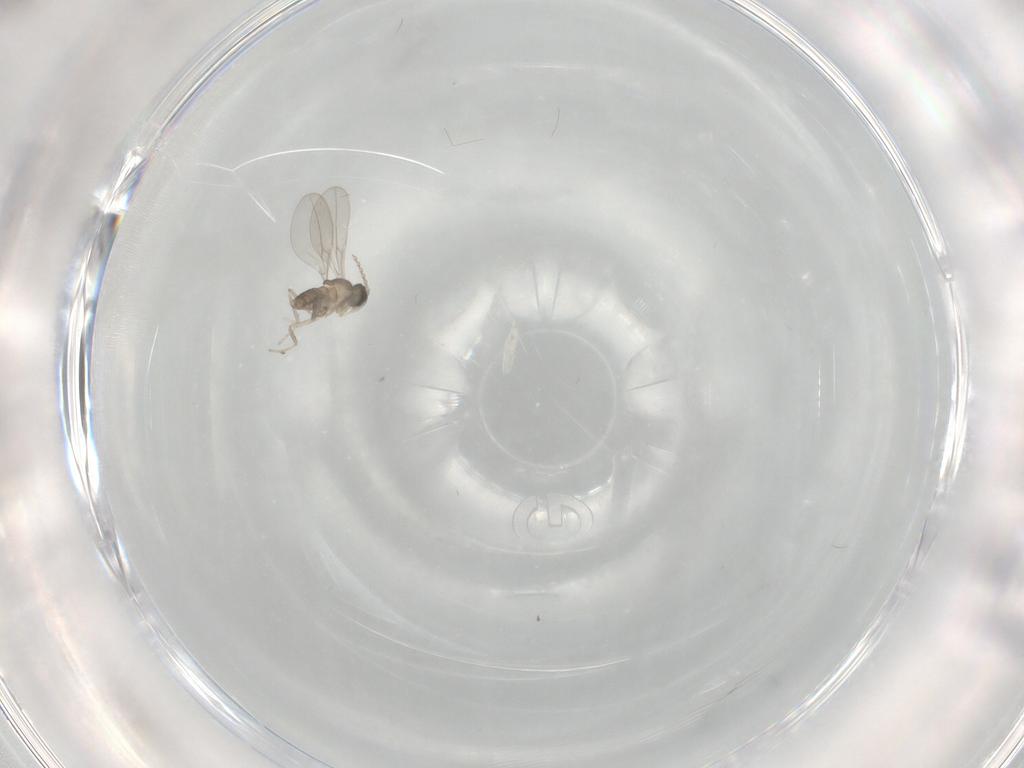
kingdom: Animalia
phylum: Arthropoda
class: Insecta
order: Diptera
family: Cecidomyiidae
